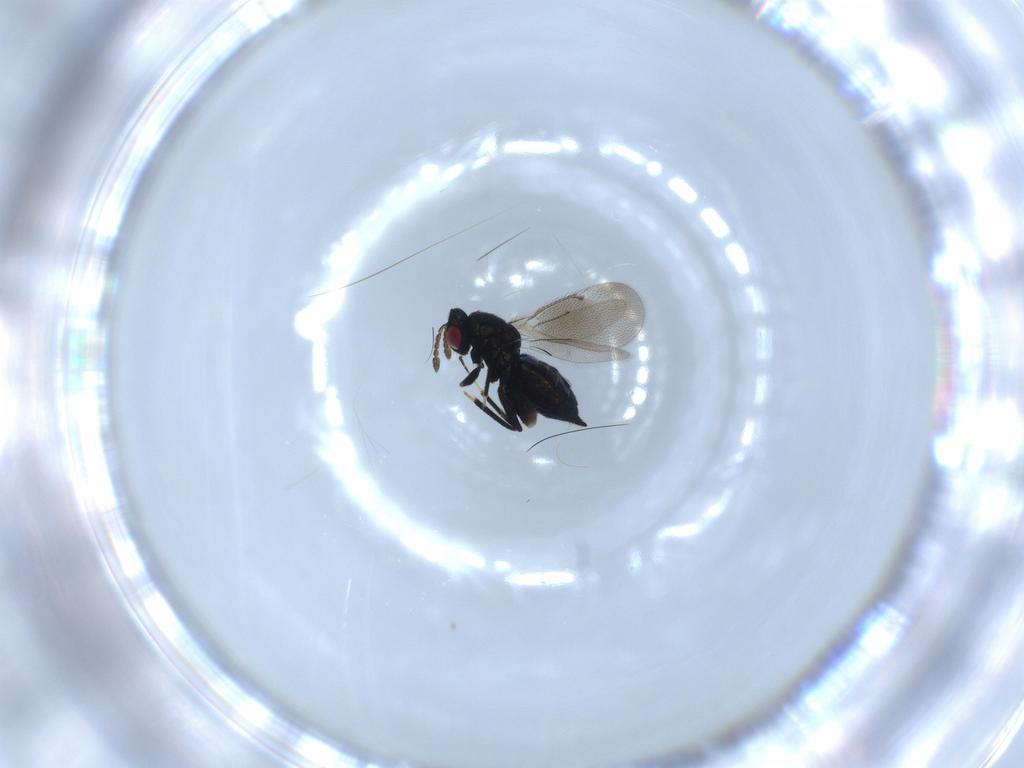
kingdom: Animalia
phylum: Arthropoda
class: Insecta
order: Hymenoptera
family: Eulophidae
